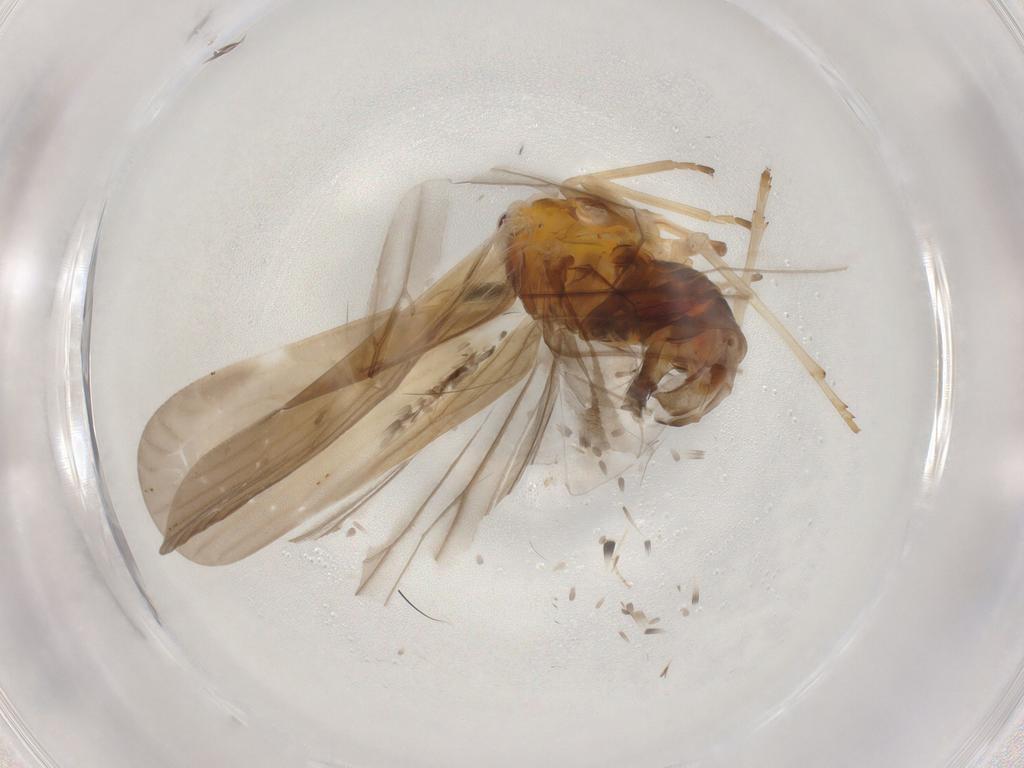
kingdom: Animalia
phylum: Arthropoda
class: Insecta
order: Hemiptera
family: Derbidae
